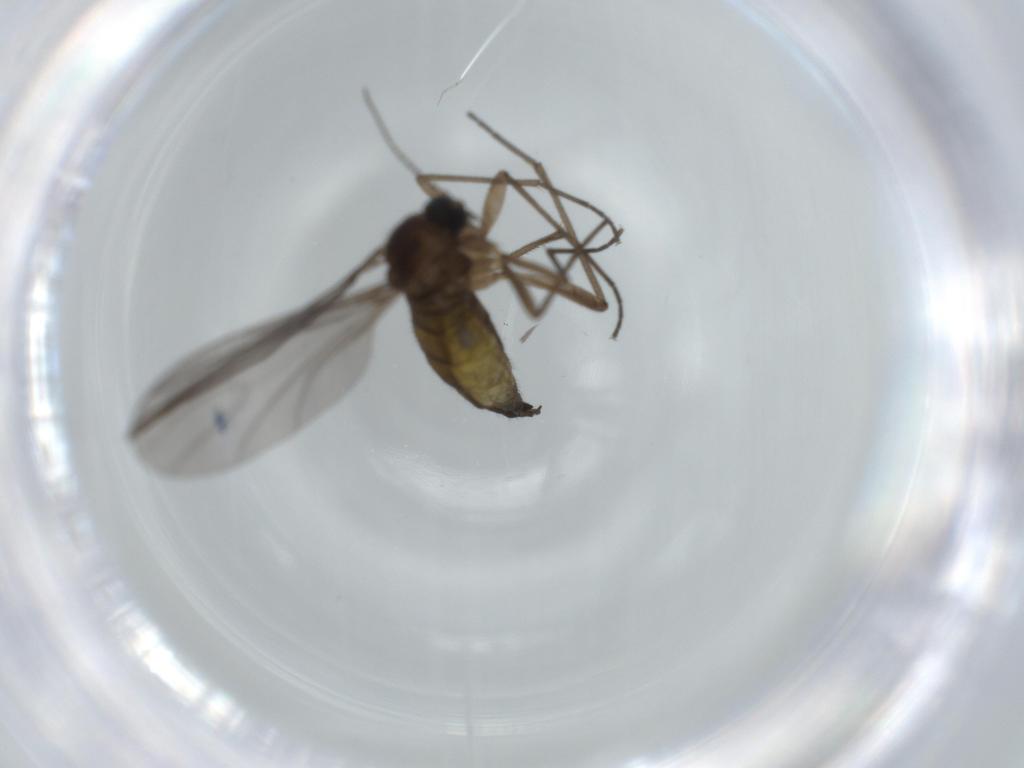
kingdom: Animalia
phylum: Arthropoda
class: Insecta
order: Diptera
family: Sciaridae
